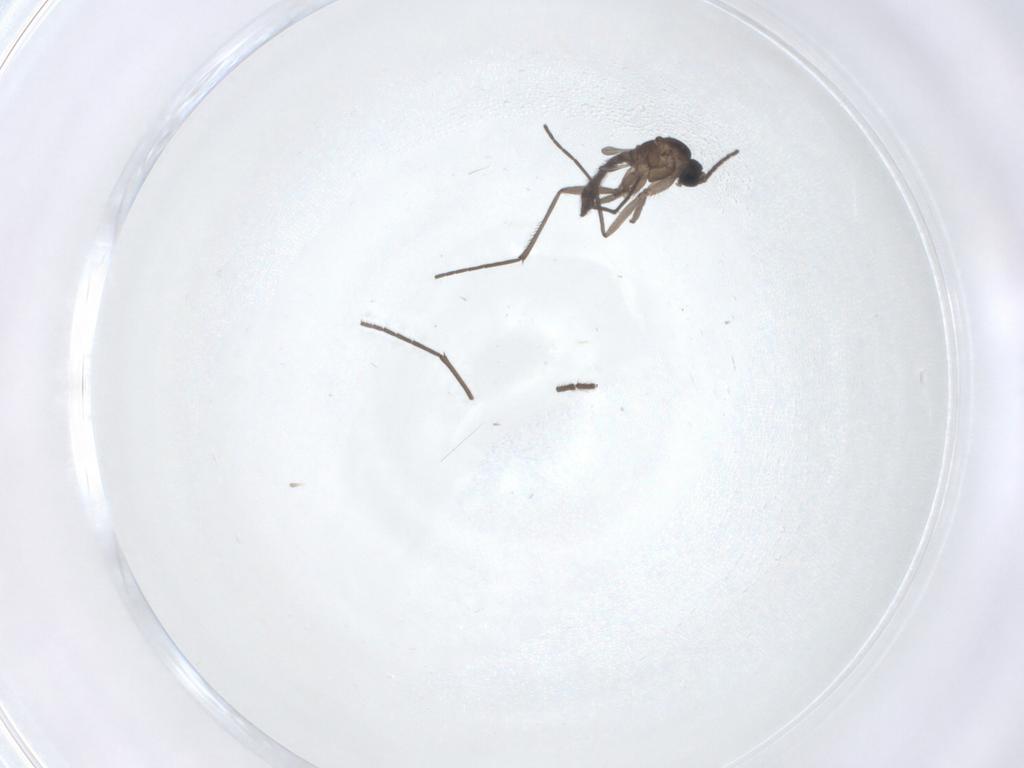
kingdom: Animalia
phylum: Arthropoda
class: Insecta
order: Diptera
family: Sciaridae
